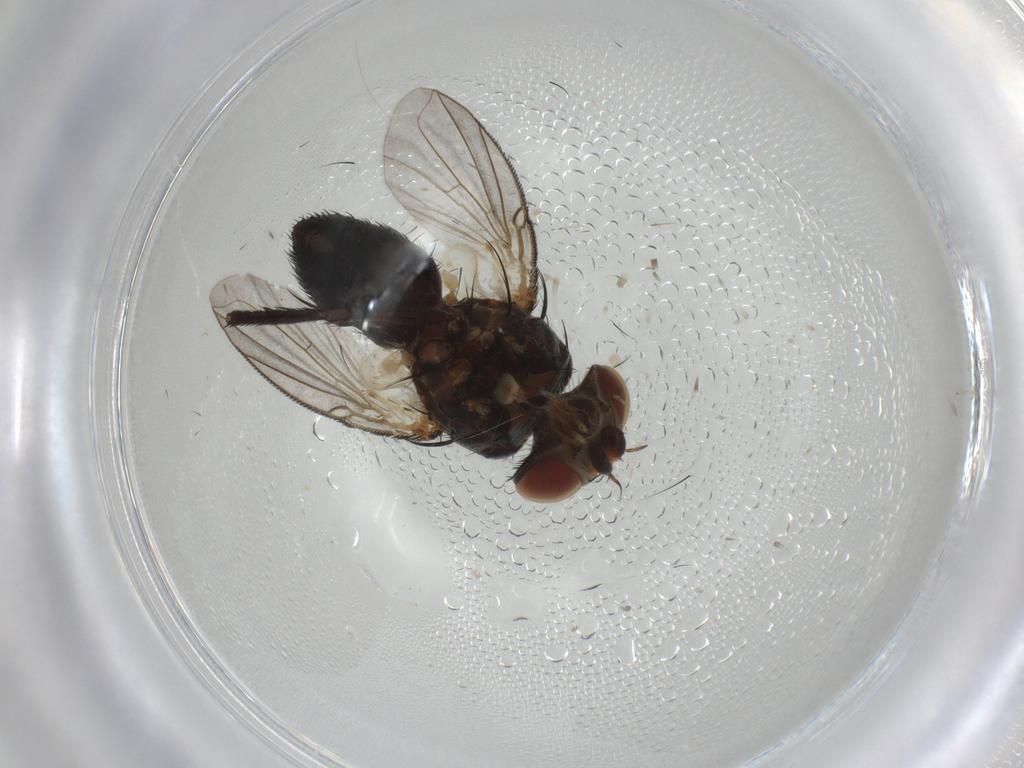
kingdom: Animalia
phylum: Arthropoda
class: Insecta
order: Diptera
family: Tachinidae
